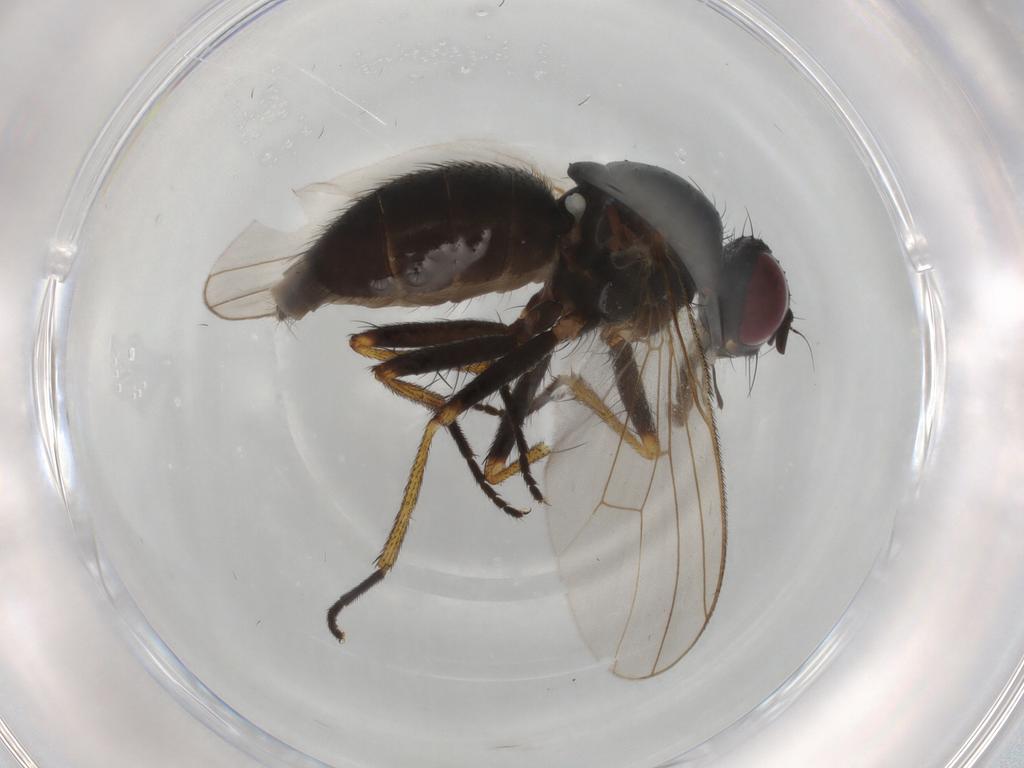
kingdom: Animalia
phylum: Arthropoda
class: Insecta
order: Diptera
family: Muscidae
